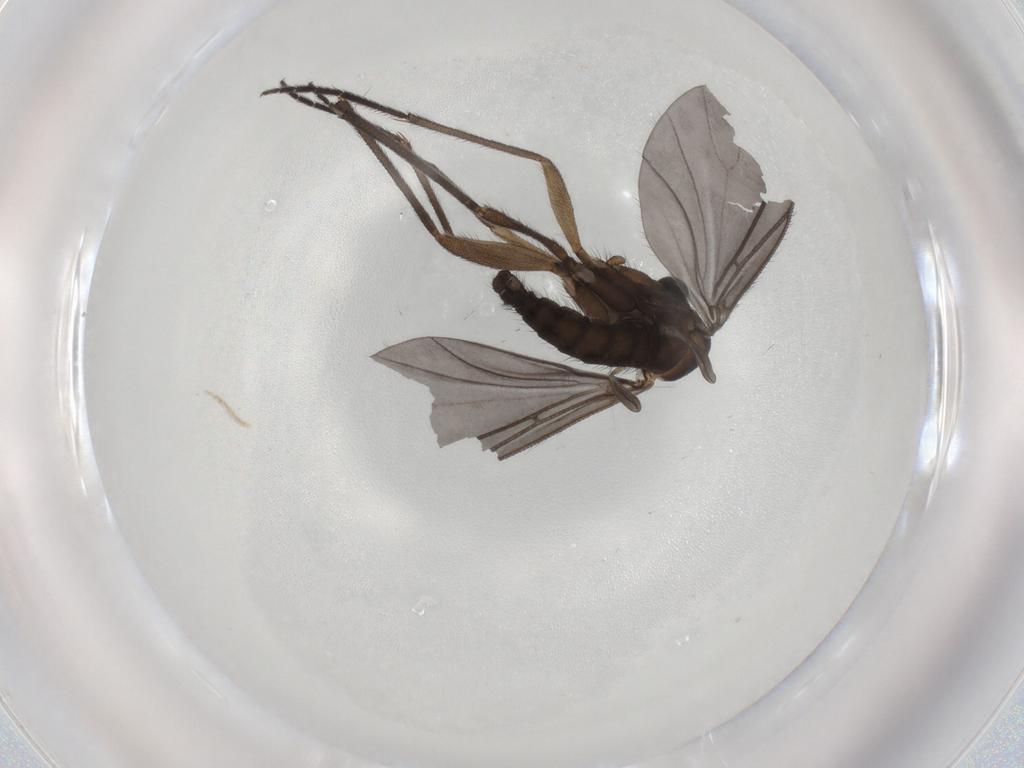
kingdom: Animalia
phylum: Arthropoda
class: Insecta
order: Diptera
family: Sciaridae
